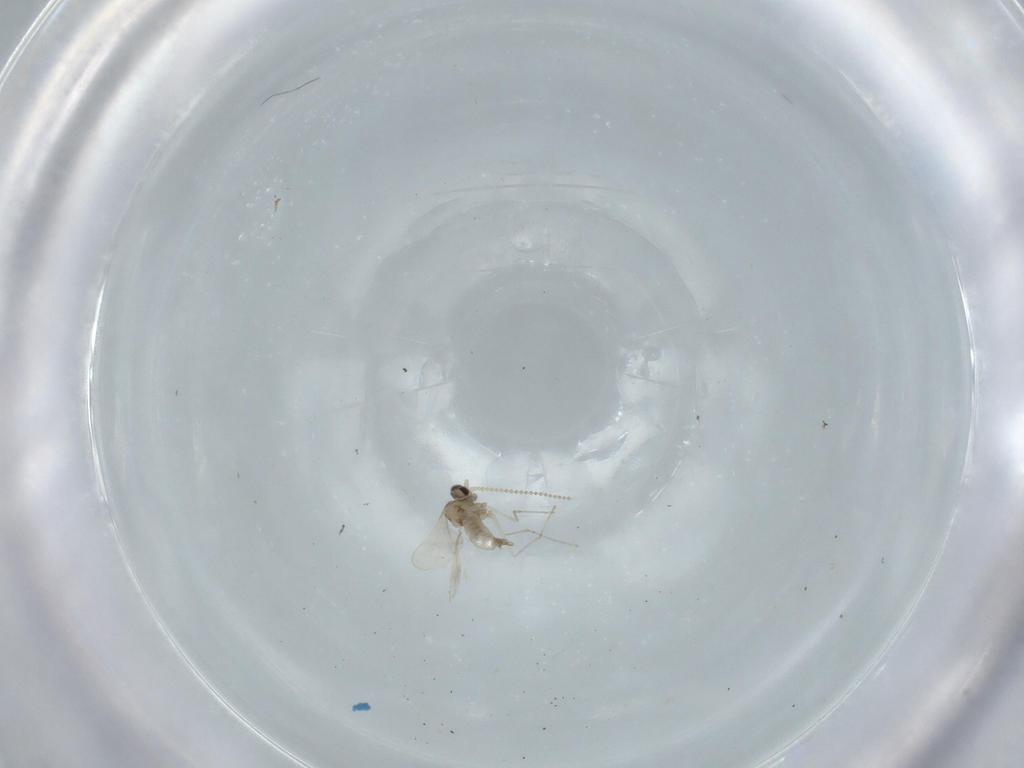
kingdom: Animalia
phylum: Arthropoda
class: Insecta
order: Diptera
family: Cecidomyiidae
